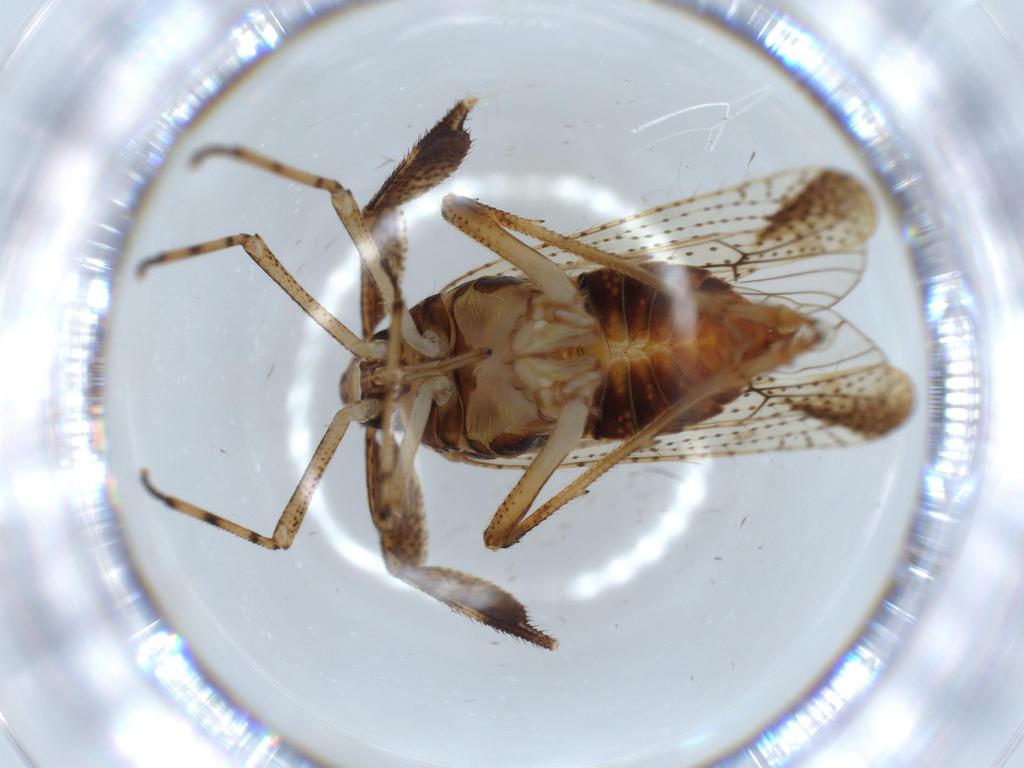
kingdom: Animalia
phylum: Arthropoda
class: Insecta
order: Hemiptera
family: Delphacidae
